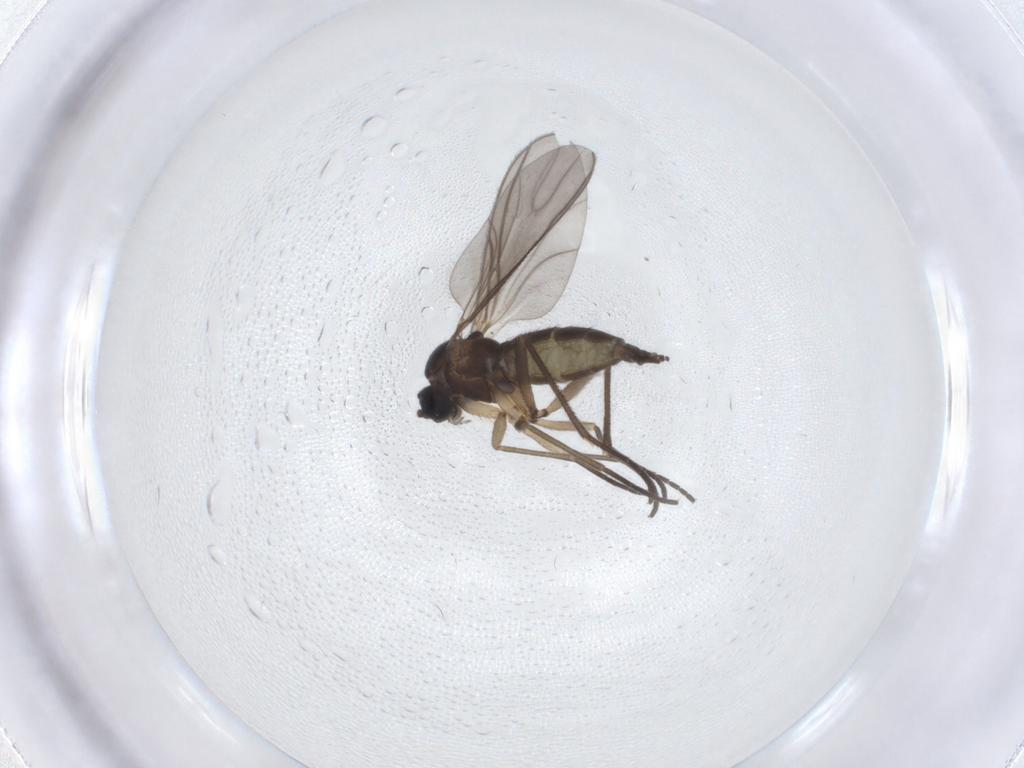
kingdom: Animalia
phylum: Arthropoda
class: Insecta
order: Diptera
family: Sciaridae
